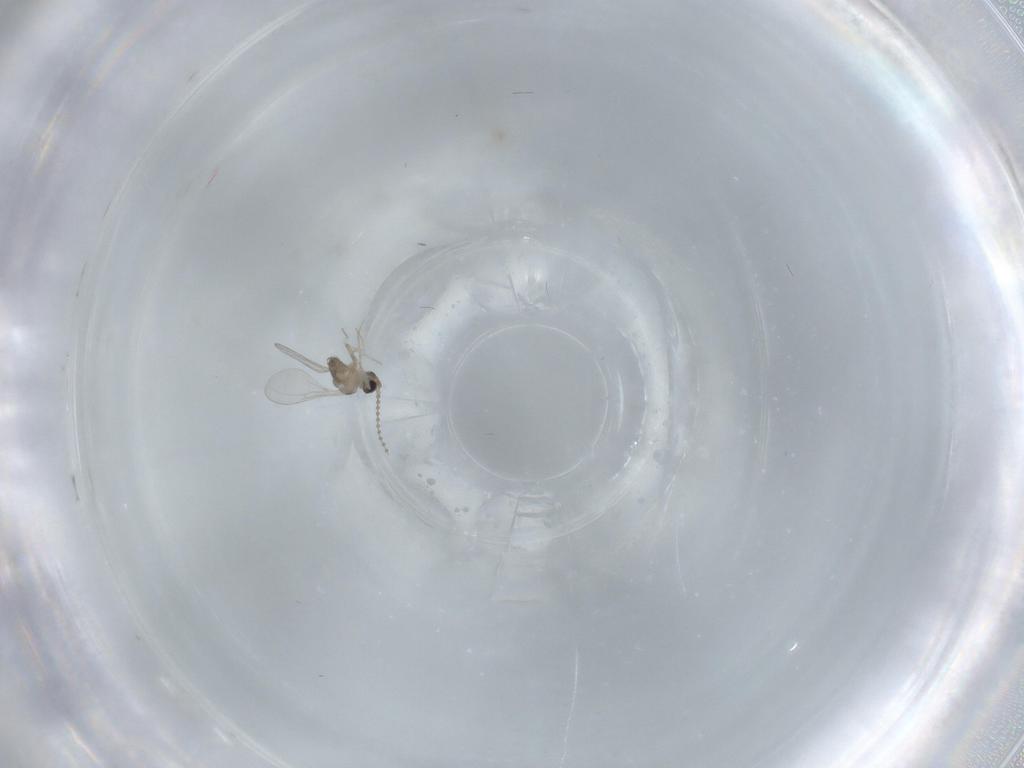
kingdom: Animalia
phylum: Arthropoda
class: Insecta
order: Diptera
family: Cecidomyiidae
